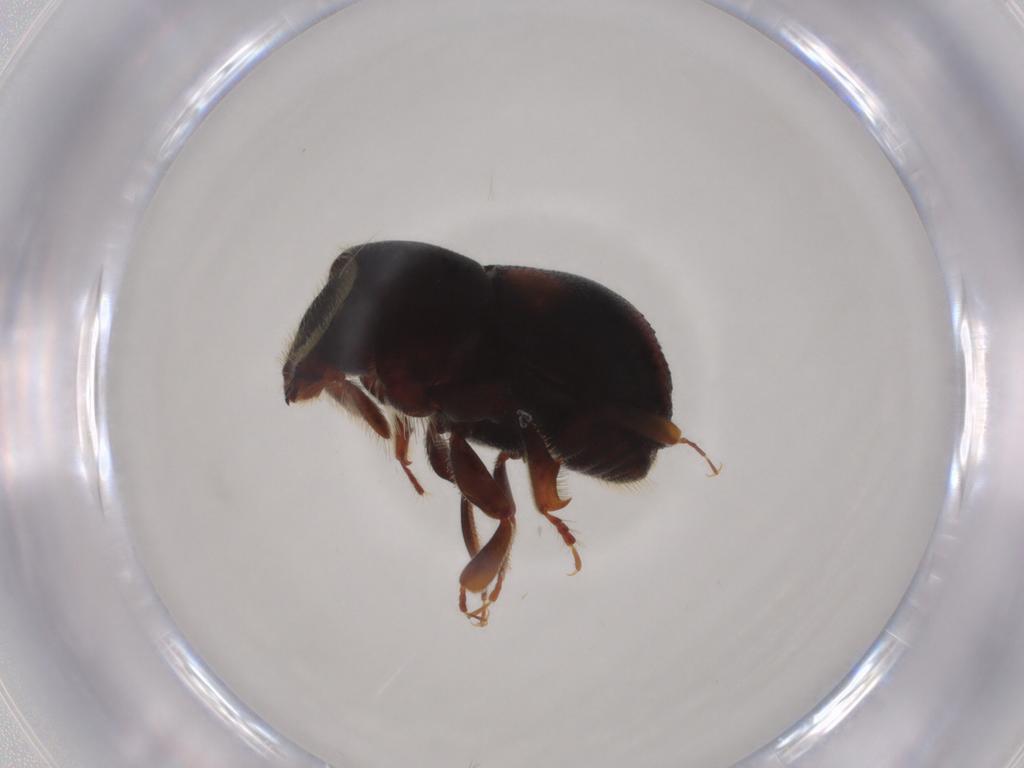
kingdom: Animalia
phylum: Arthropoda
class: Insecta
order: Coleoptera
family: Curculionidae
